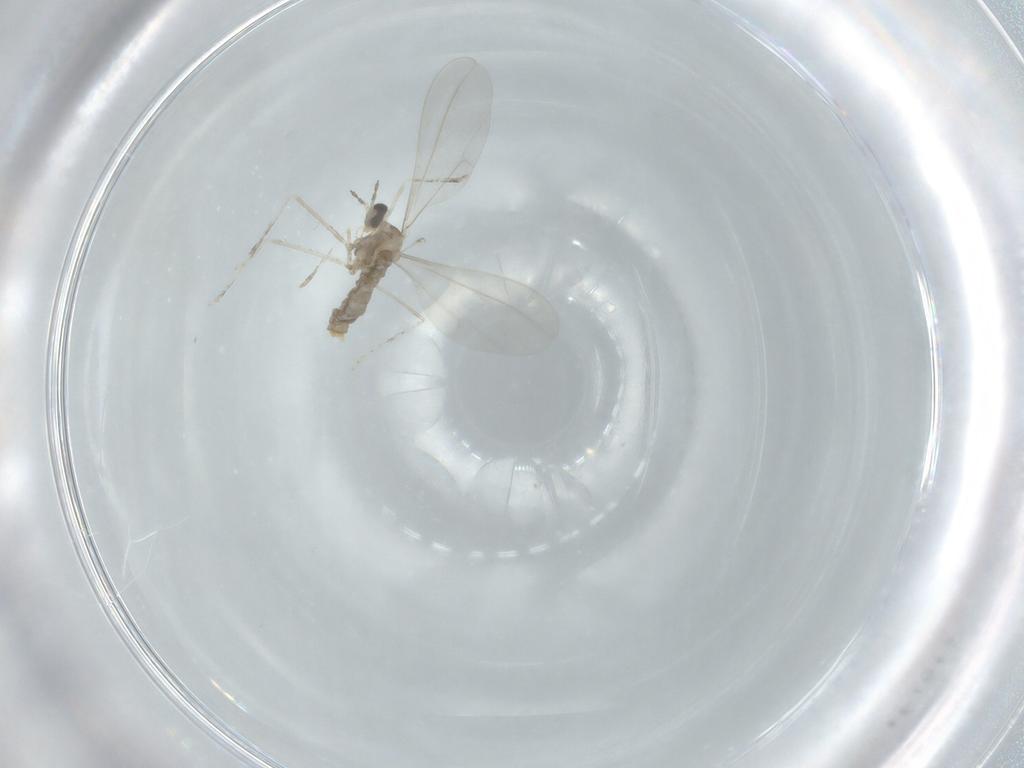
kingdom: Animalia
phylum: Arthropoda
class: Insecta
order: Diptera
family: Cecidomyiidae
